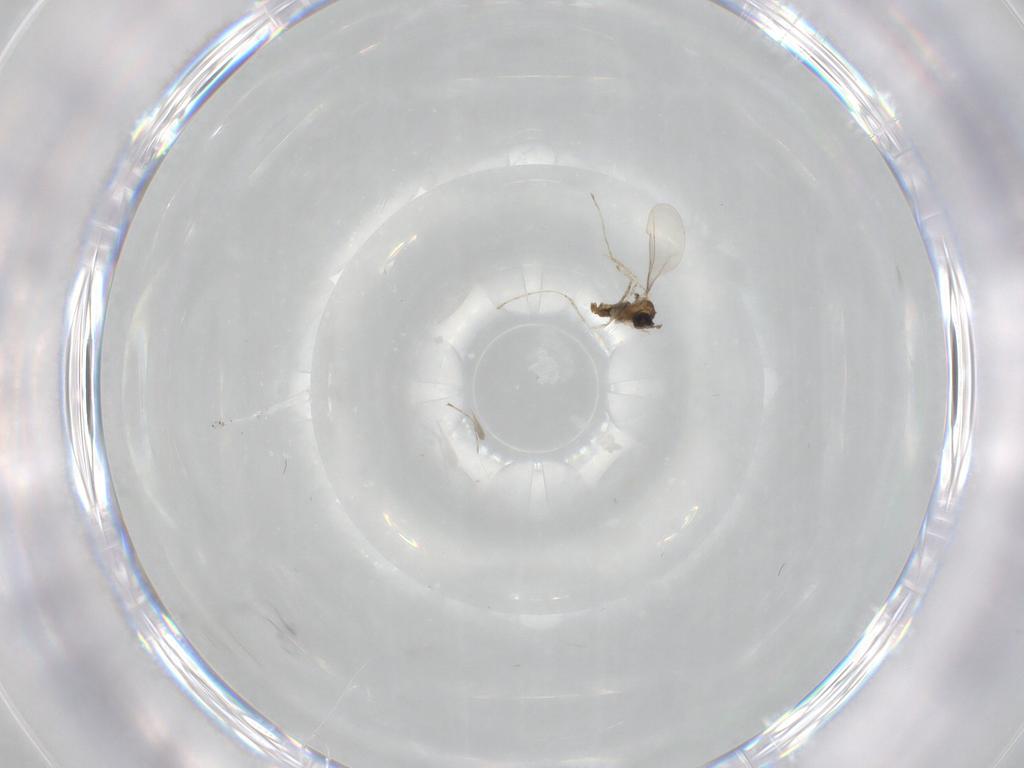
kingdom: Animalia
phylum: Arthropoda
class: Insecta
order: Diptera
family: Cecidomyiidae
